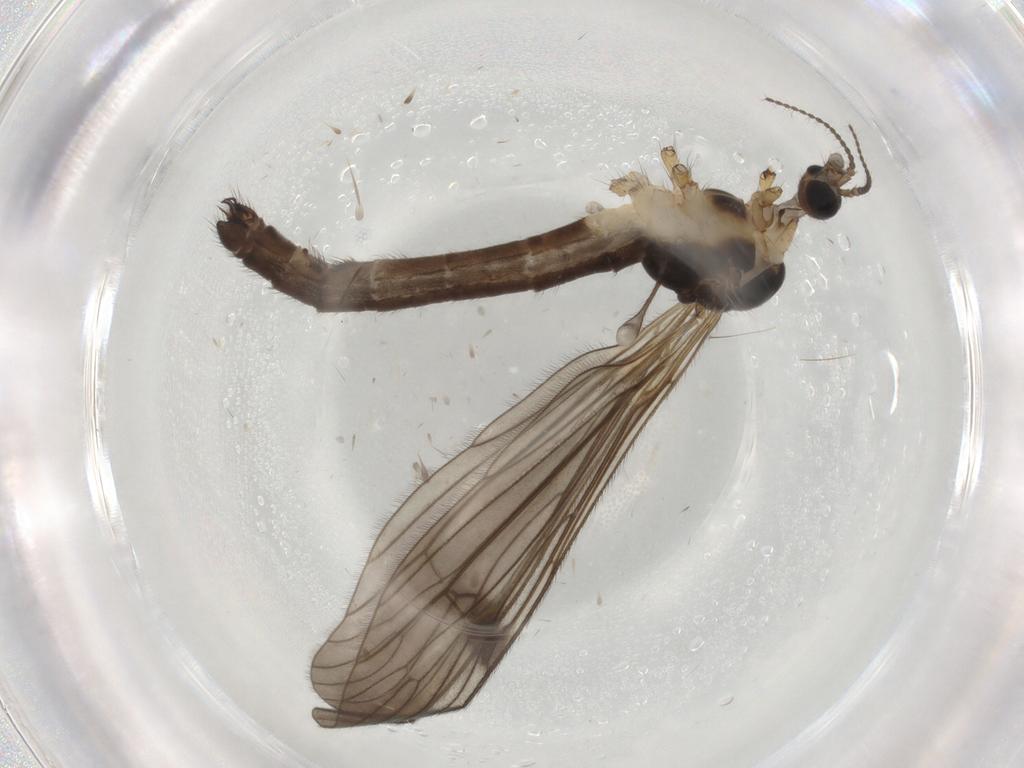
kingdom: Animalia
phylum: Arthropoda
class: Insecta
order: Diptera
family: Limoniidae
